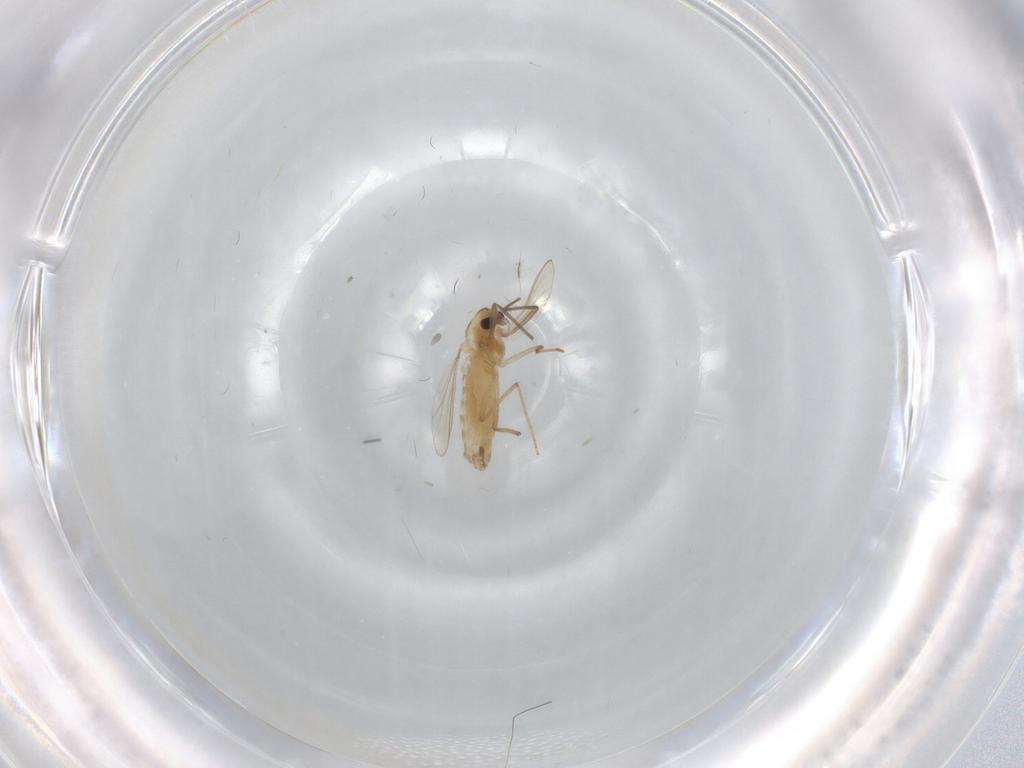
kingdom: Animalia
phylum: Arthropoda
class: Insecta
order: Diptera
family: Chironomidae
